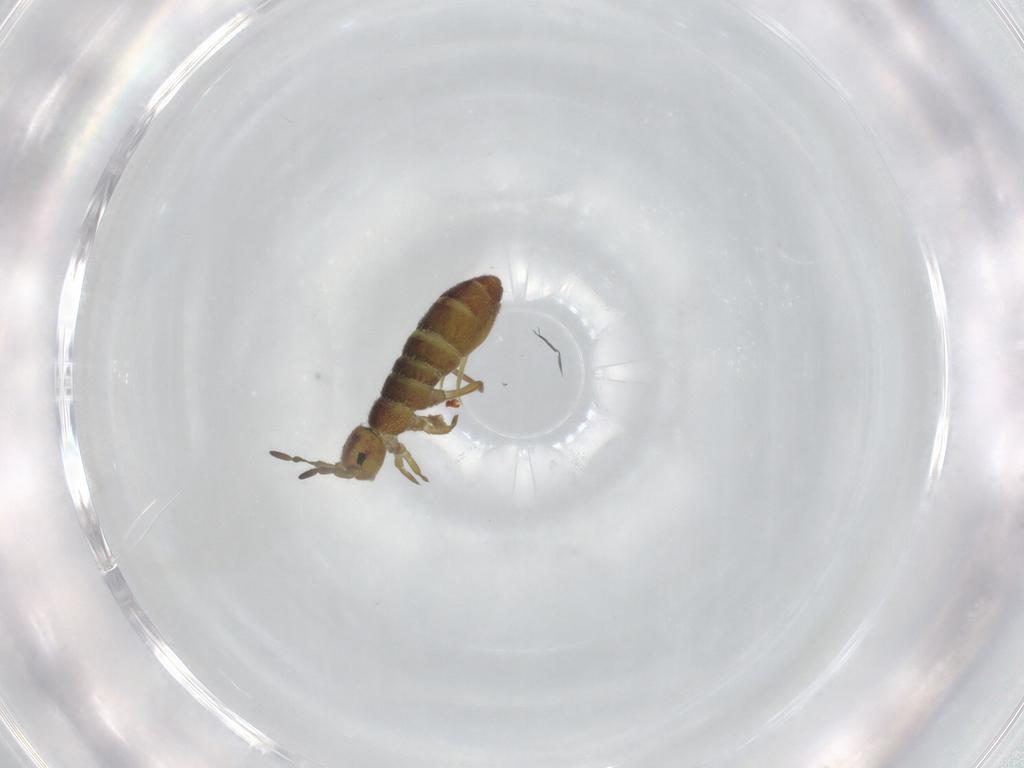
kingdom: Animalia
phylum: Arthropoda
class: Collembola
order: Entomobryomorpha
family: Isotomidae
